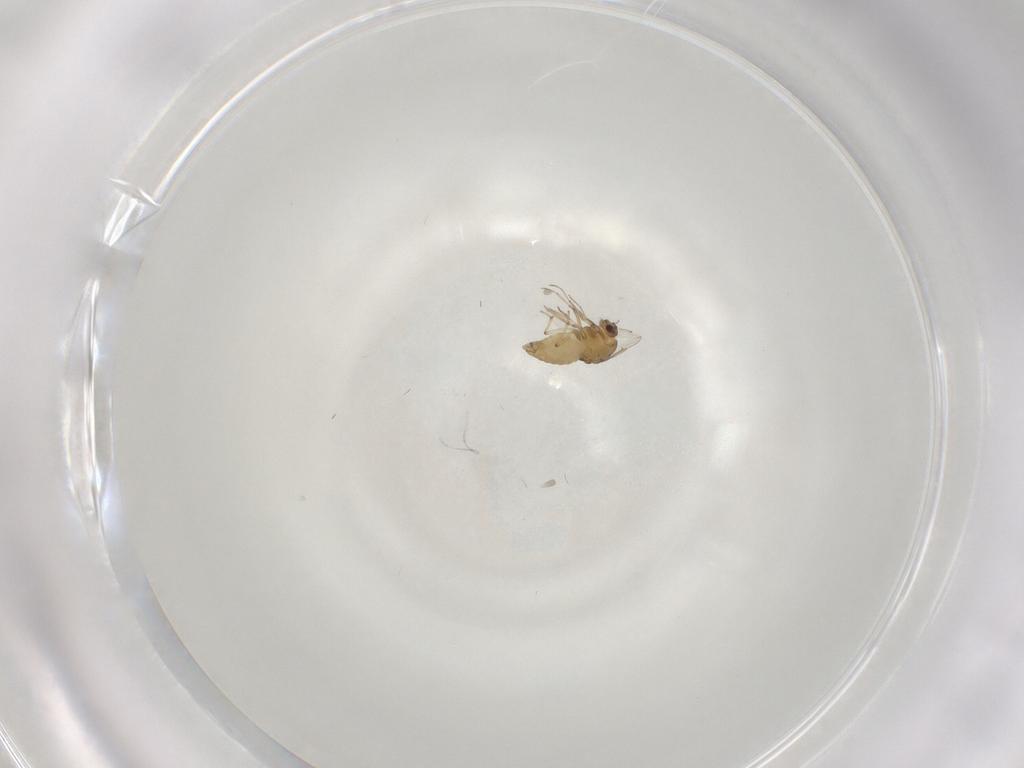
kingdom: Animalia
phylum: Arthropoda
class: Insecta
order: Diptera
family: Chironomidae
